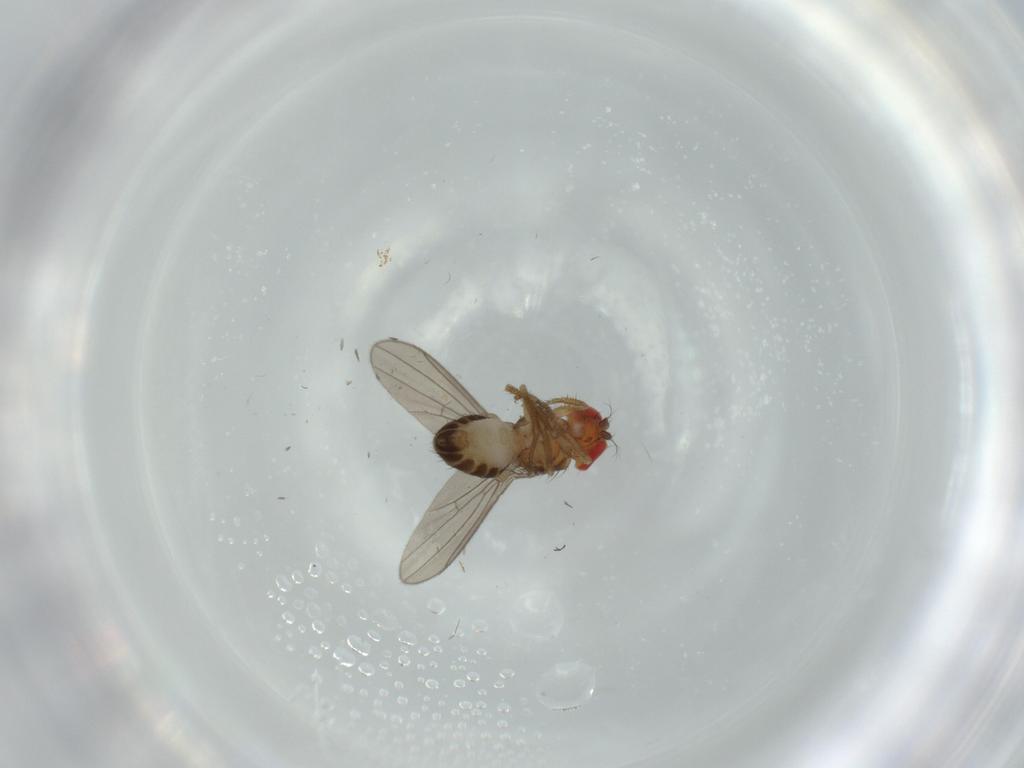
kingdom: Animalia
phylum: Arthropoda
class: Insecta
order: Diptera
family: Drosophilidae
